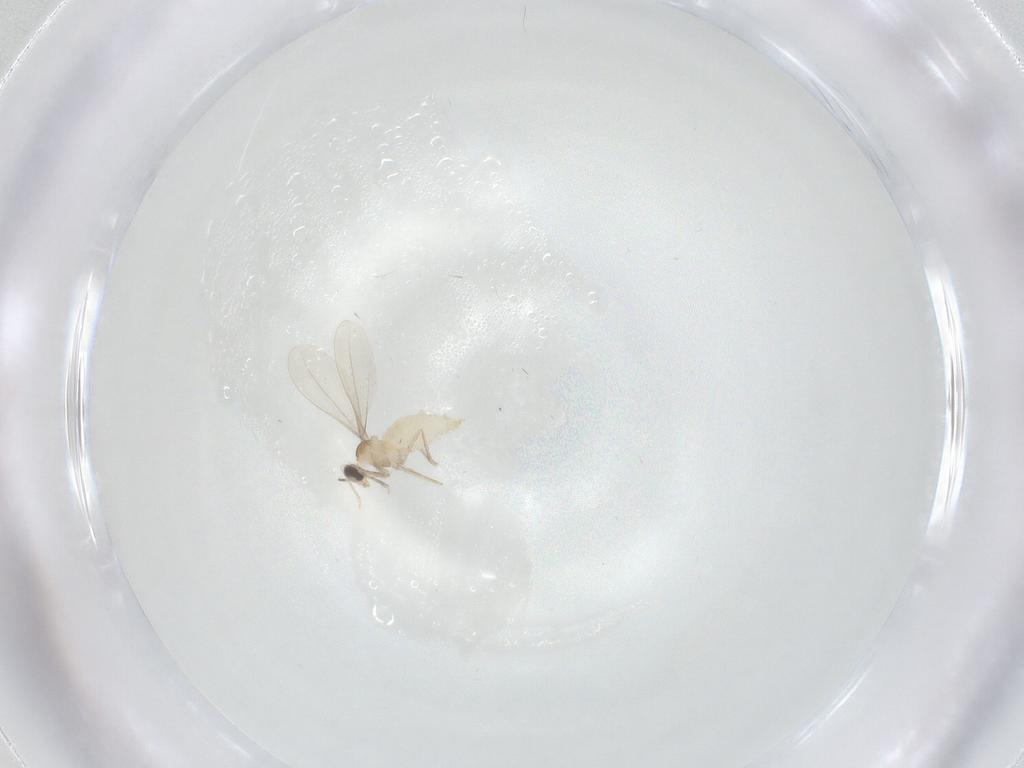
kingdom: Animalia
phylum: Arthropoda
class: Insecta
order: Diptera
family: Cecidomyiidae
